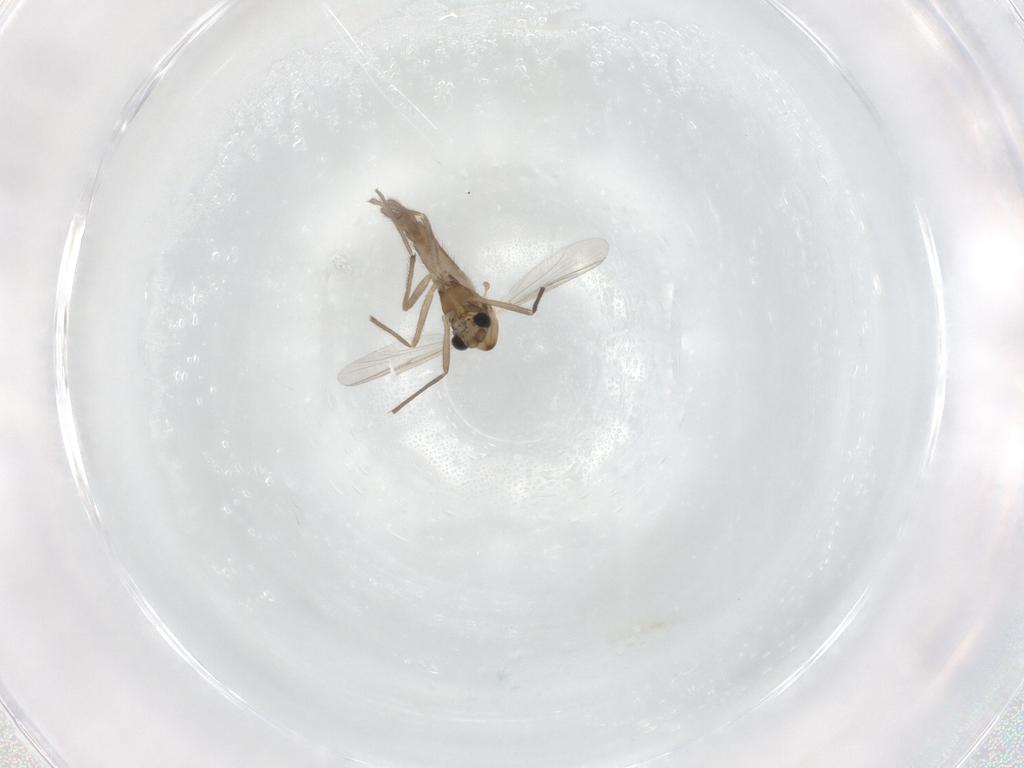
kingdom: Animalia
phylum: Arthropoda
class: Insecta
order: Diptera
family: Chironomidae
